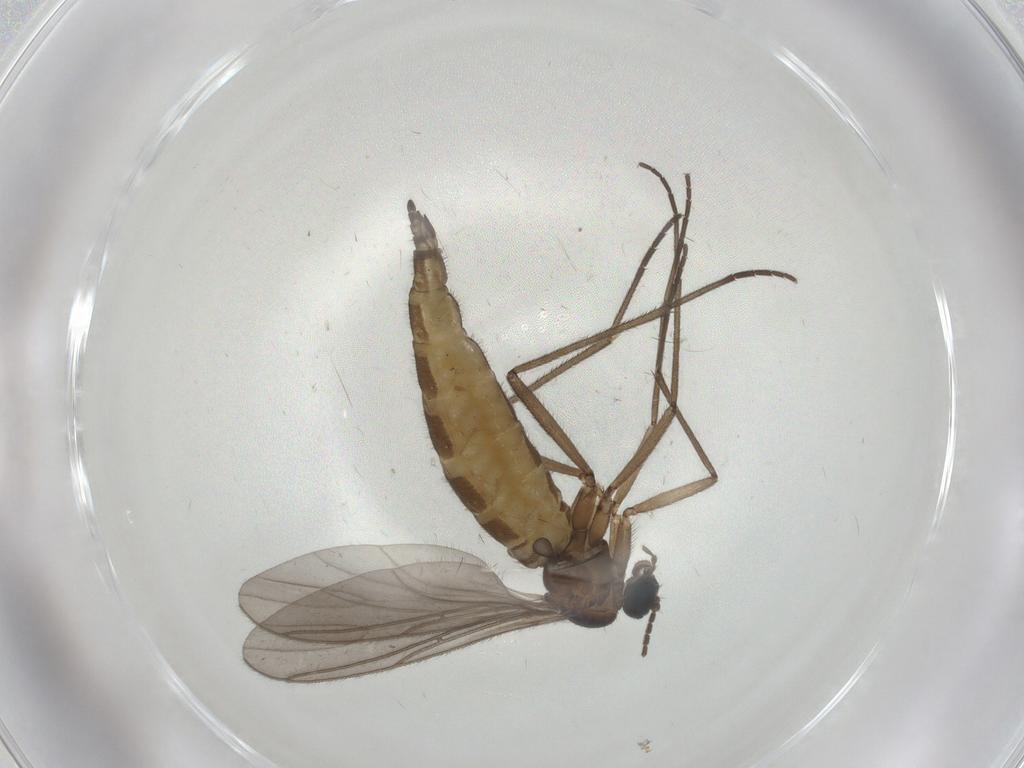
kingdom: Animalia
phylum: Arthropoda
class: Insecta
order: Diptera
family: Sciaridae
